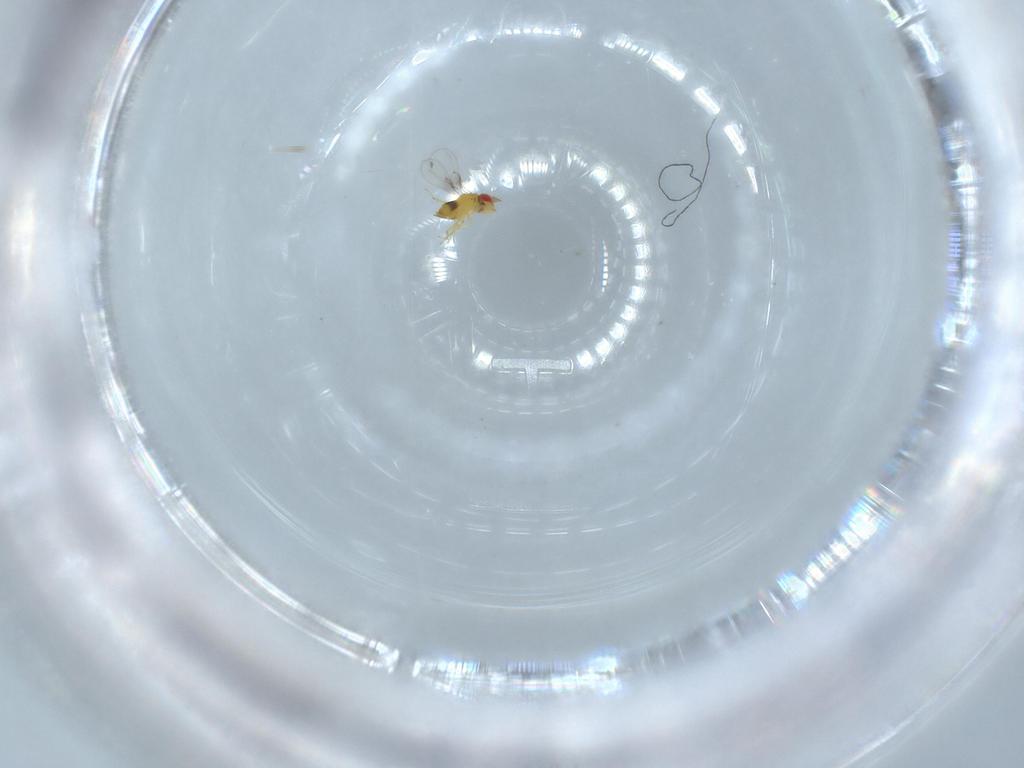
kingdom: Animalia
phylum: Arthropoda
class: Insecta
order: Hymenoptera
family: Trichogrammatidae
